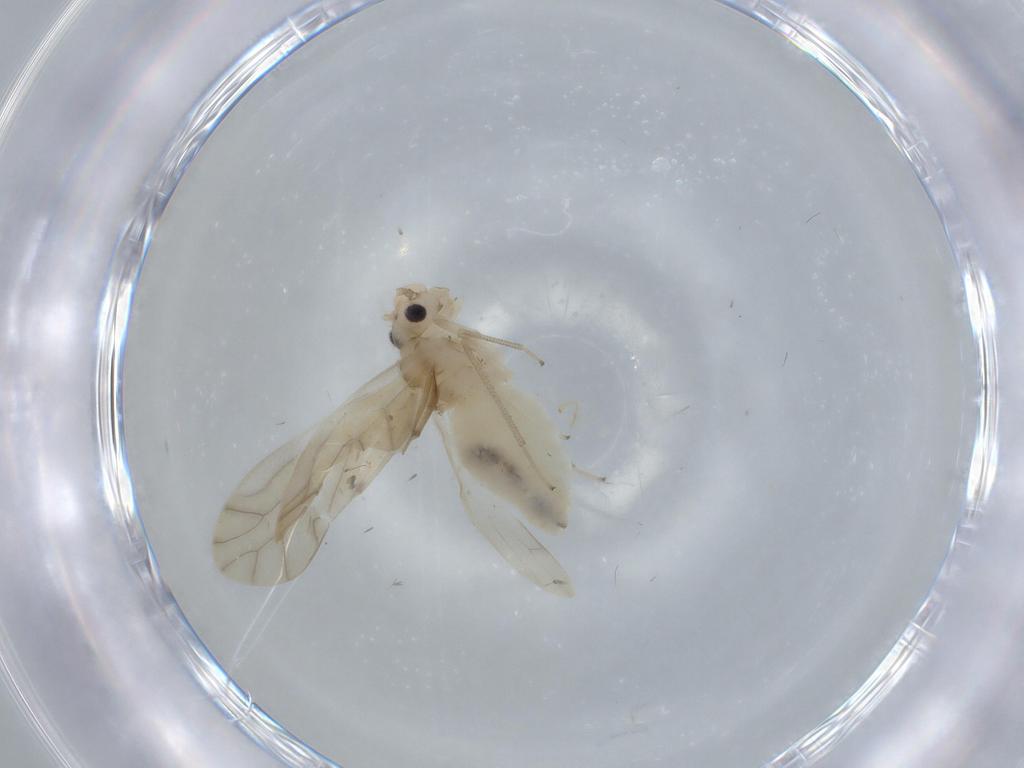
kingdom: Animalia
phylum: Arthropoda
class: Insecta
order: Psocodea
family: Caeciliusidae
